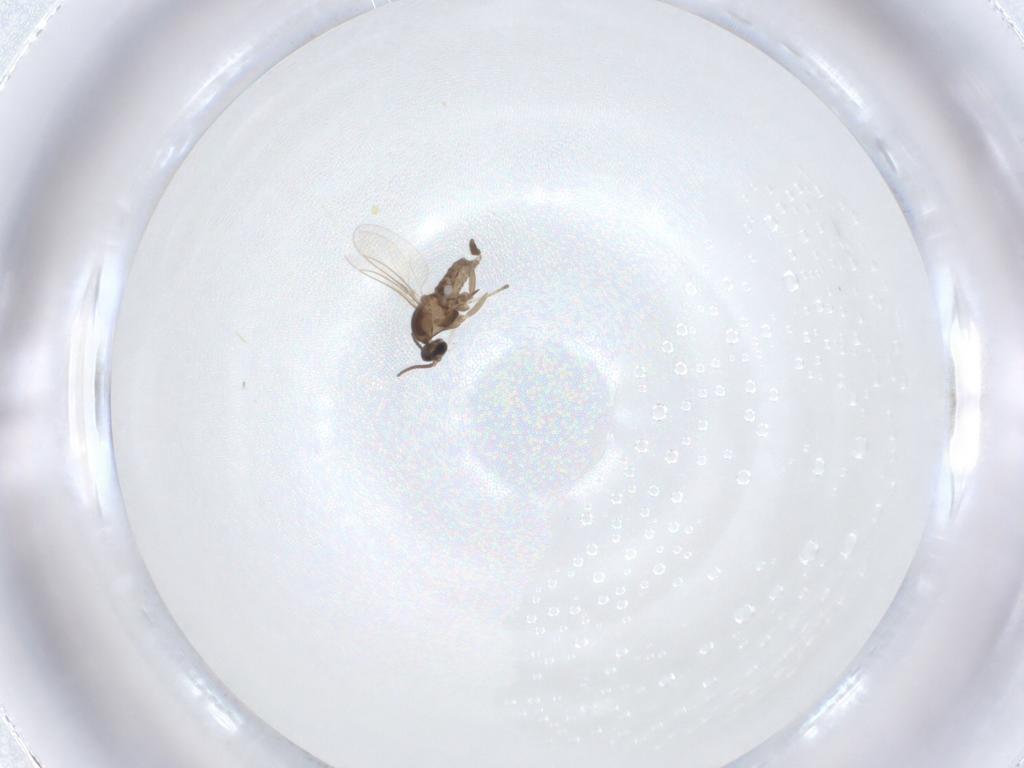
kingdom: Animalia
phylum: Arthropoda
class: Insecta
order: Diptera
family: Cecidomyiidae
